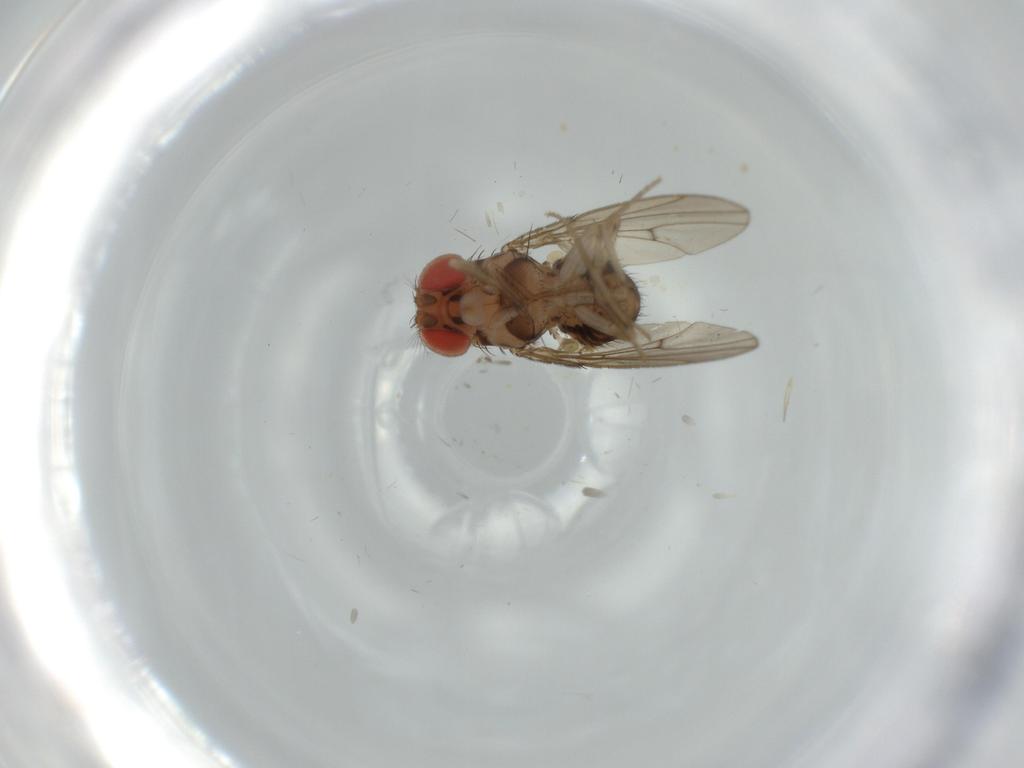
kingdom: Animalia
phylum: Arthropoda
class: Insecta
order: Diptera
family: Drosophilidae
